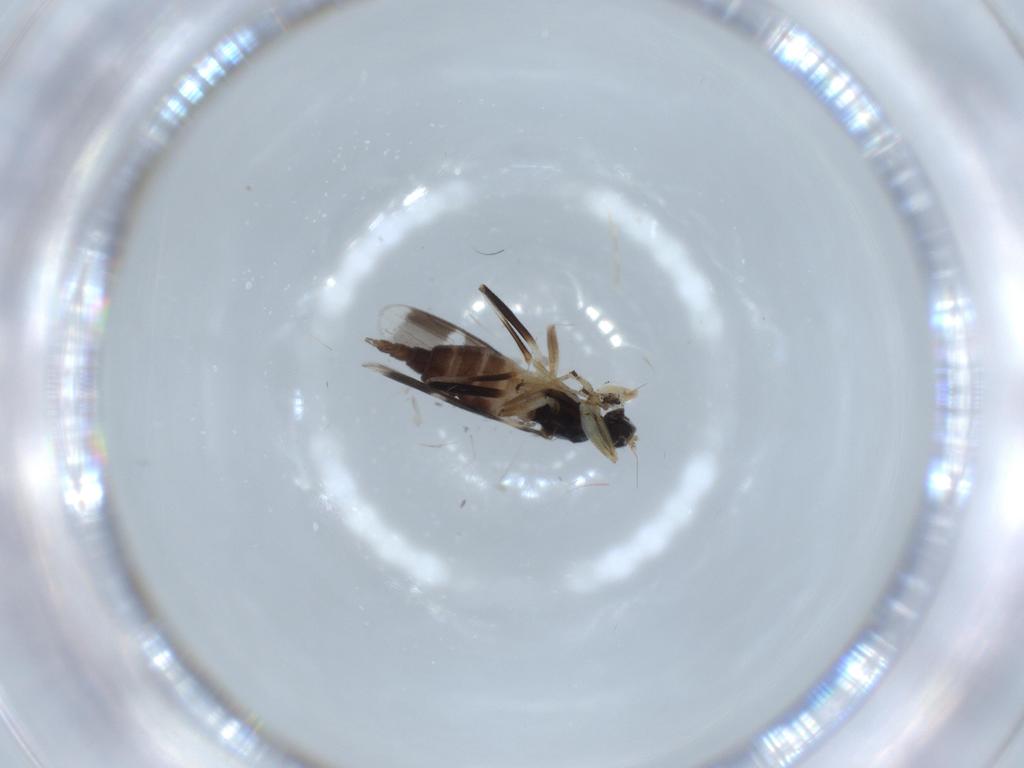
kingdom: Animalia
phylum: Arthropoda
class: Insecta
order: Diptera
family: Hybotidae
